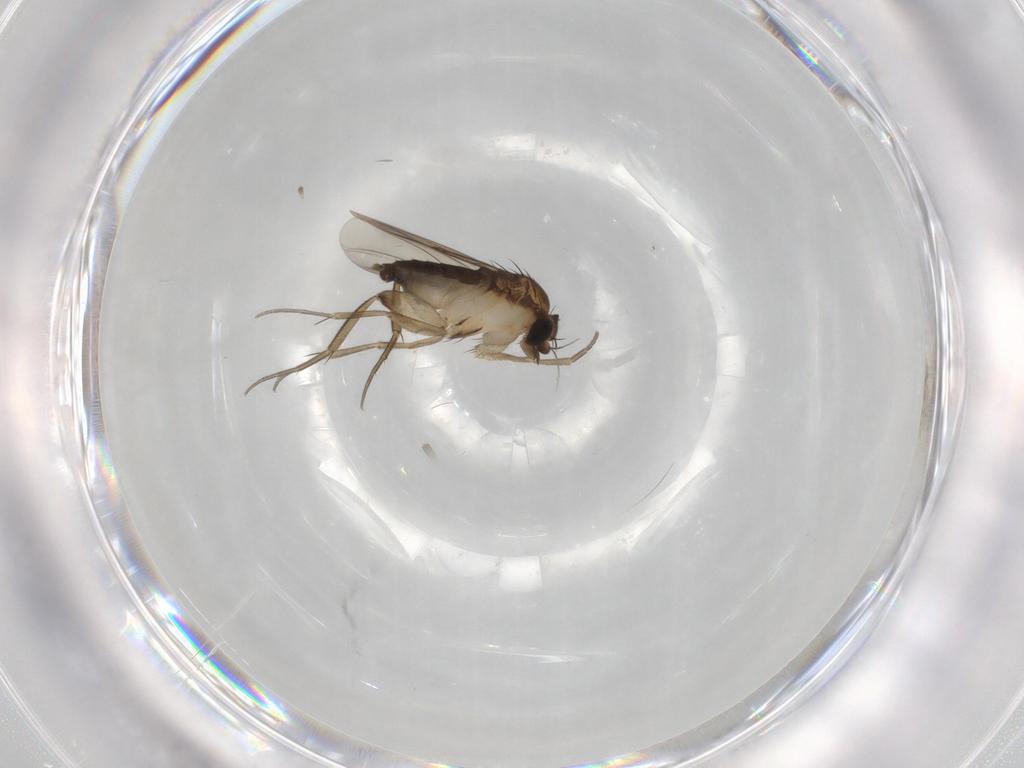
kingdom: Animalia
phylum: Arthropoda
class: Insecta
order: Diptera
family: Phoridae
